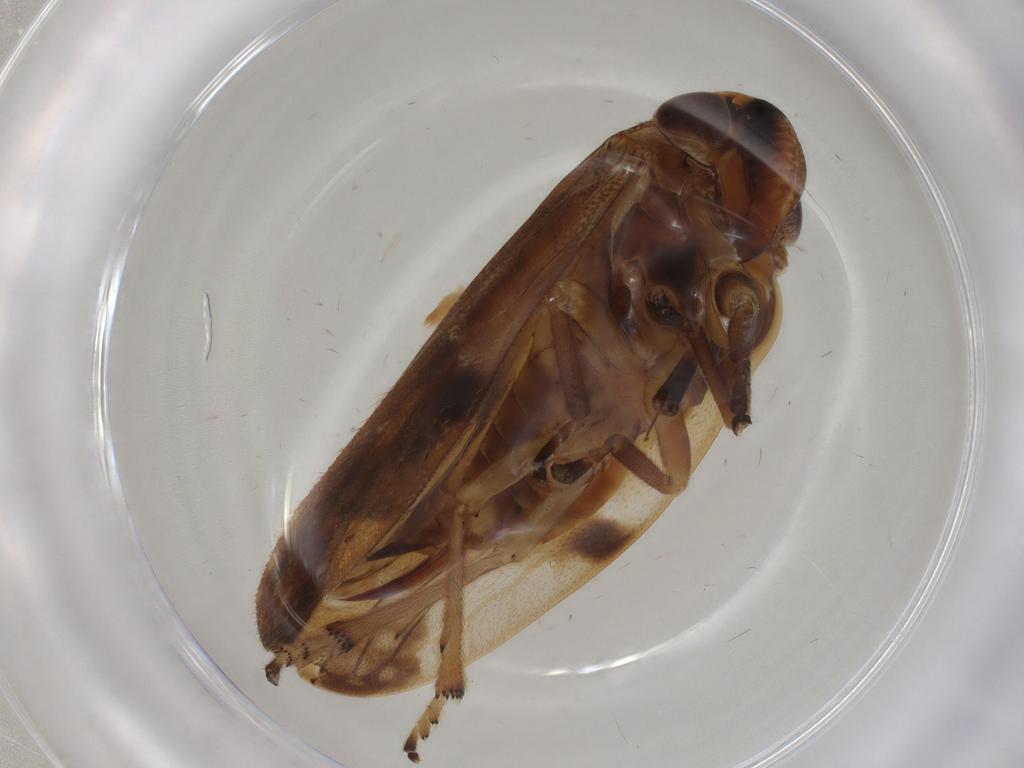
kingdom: Animalia
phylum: Arthropoda
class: Insecta
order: Hemiptera
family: Aphrophoridae
